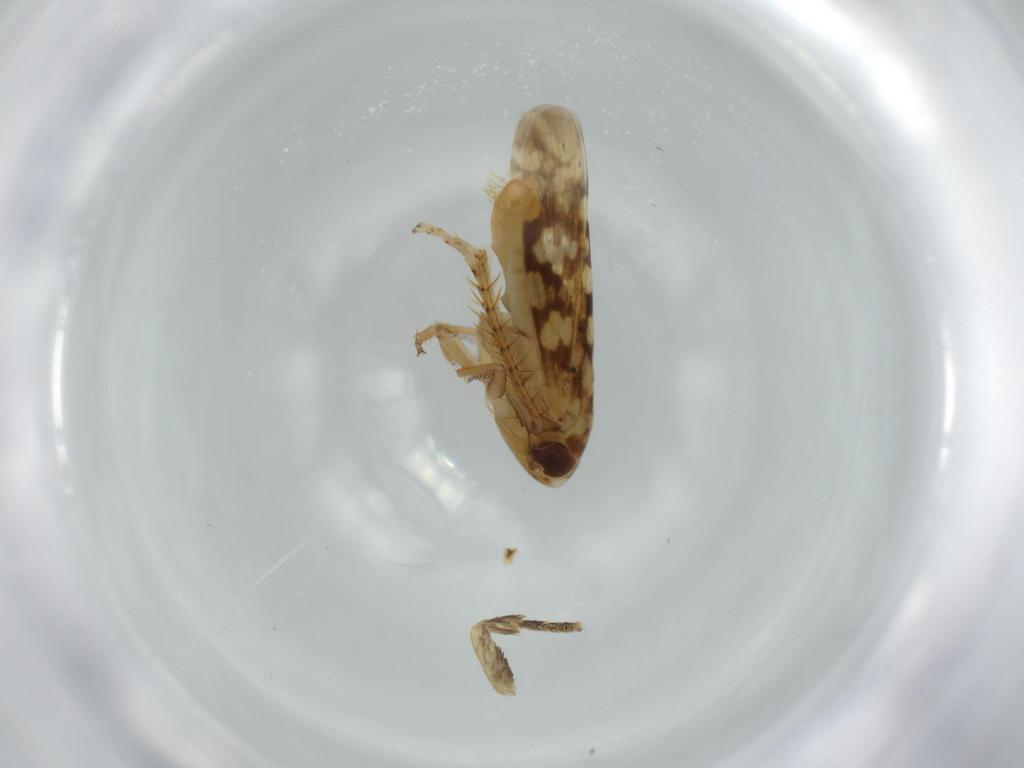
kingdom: Animalia
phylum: Arthropoda
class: Insecta
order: Hemiptera
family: Cicadellidae
